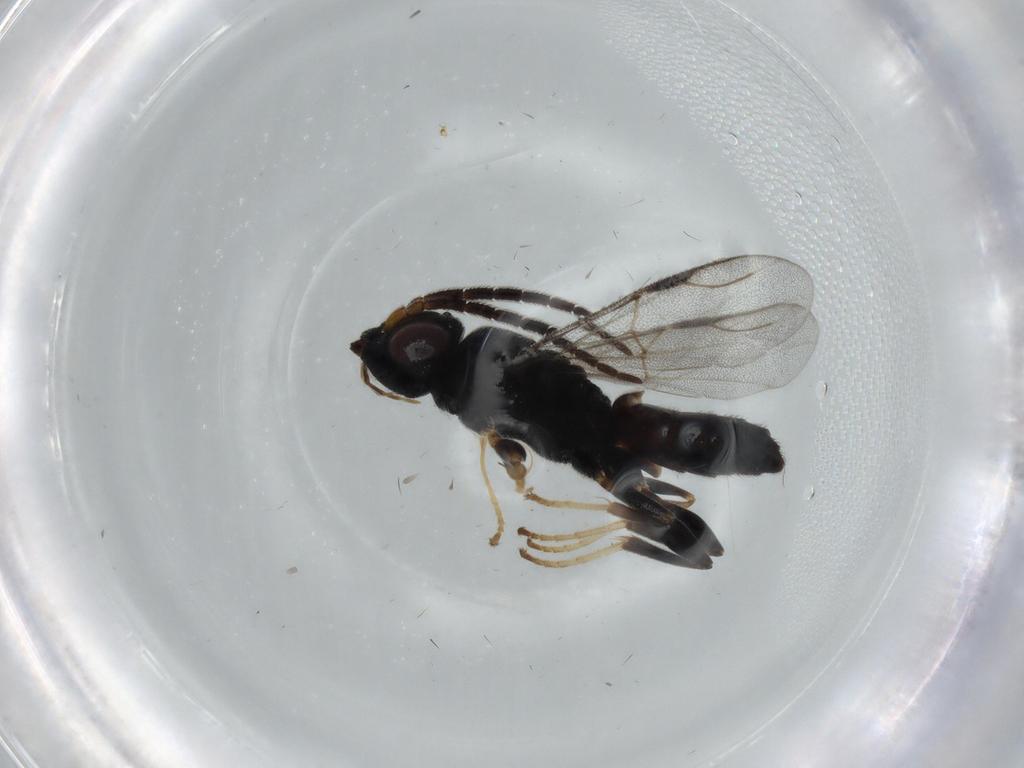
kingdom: Animalia
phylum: Arthropoda
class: Insecta
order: Hymenoptera
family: Dryinidae
